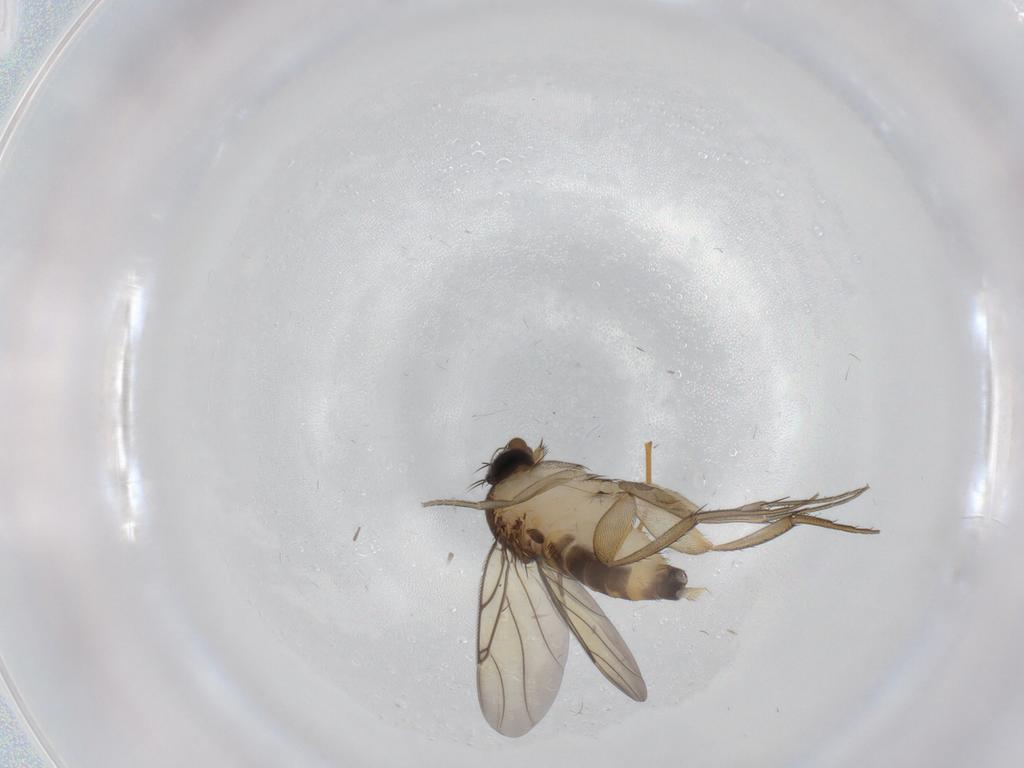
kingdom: Animalia
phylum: Arthropoda
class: Insecta
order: Diptera
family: Mycetophilidae
